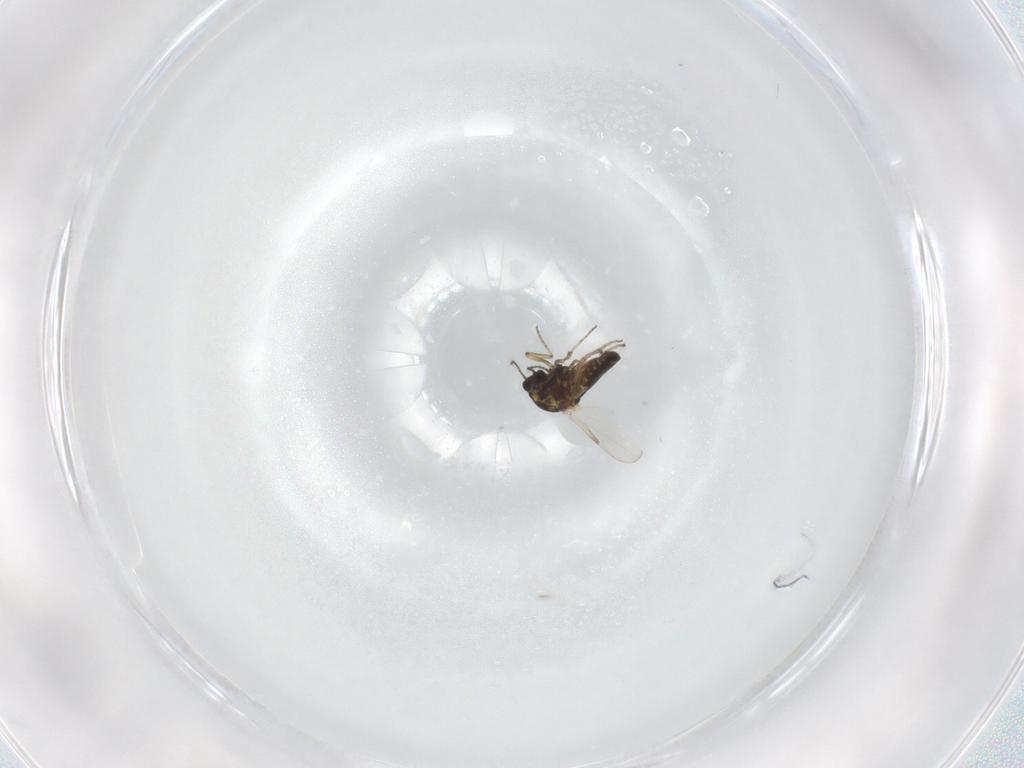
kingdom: Animalia
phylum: Arthropoda
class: Insecta
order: Diptera
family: Ceratopogonidae
